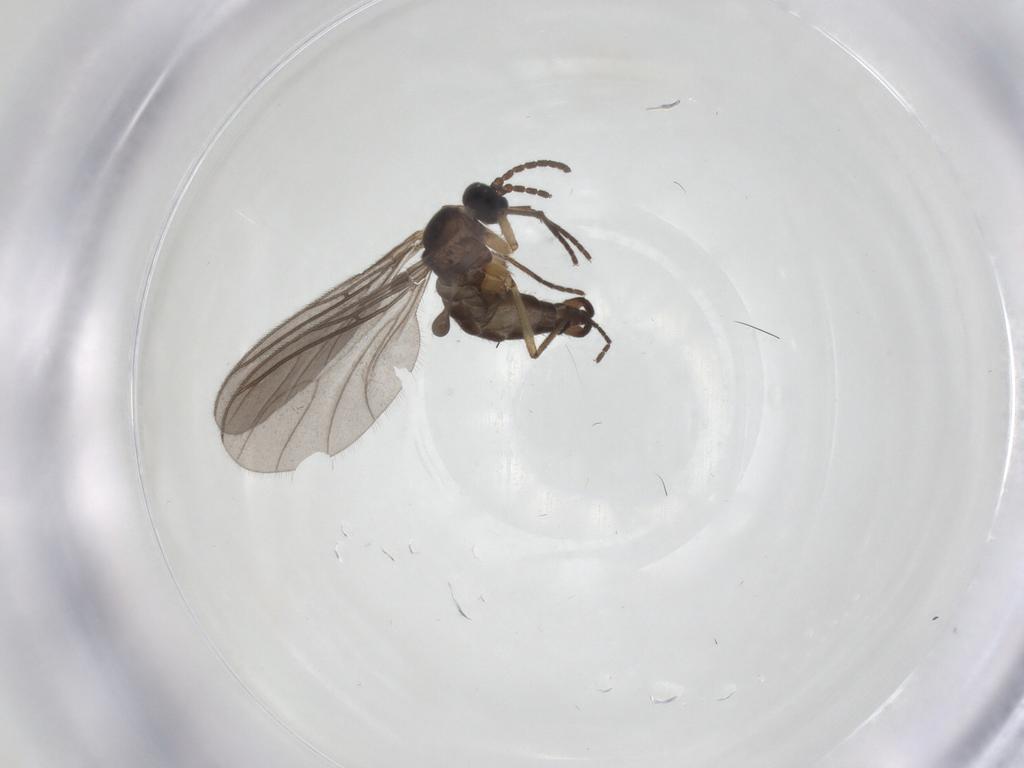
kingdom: Animalia
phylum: Arthropoda
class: Insecta
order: Diptera
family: Sciaridae
